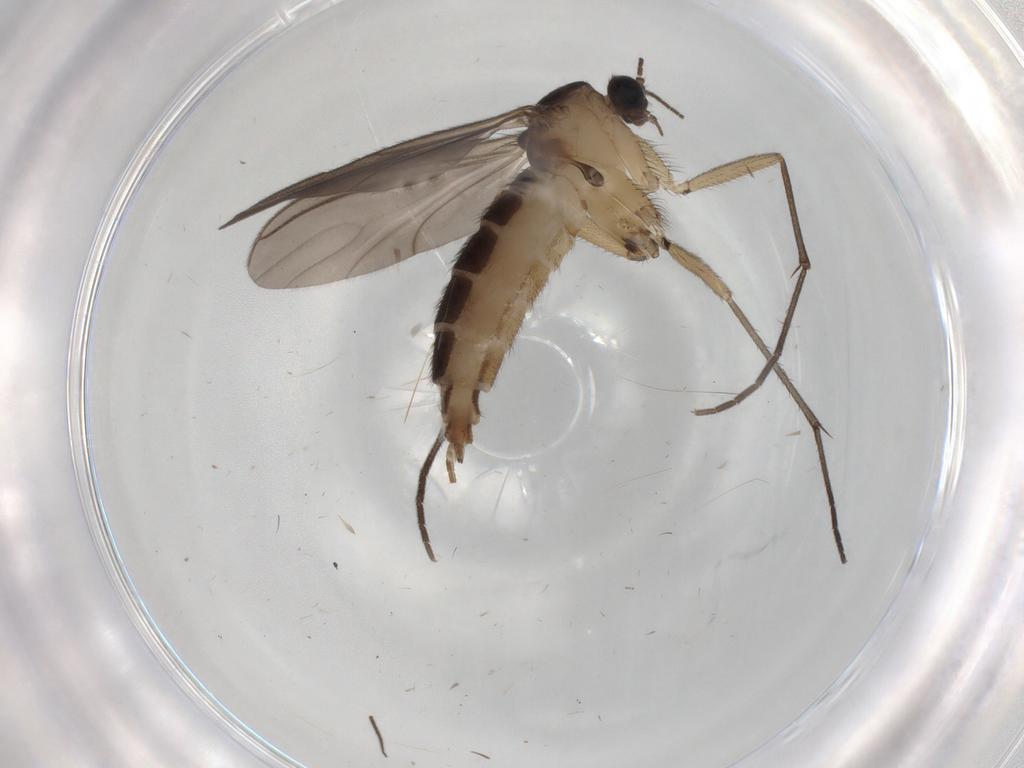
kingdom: Animalia
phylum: Arthropoda
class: Insecta
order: Diptera
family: Sciaridae
